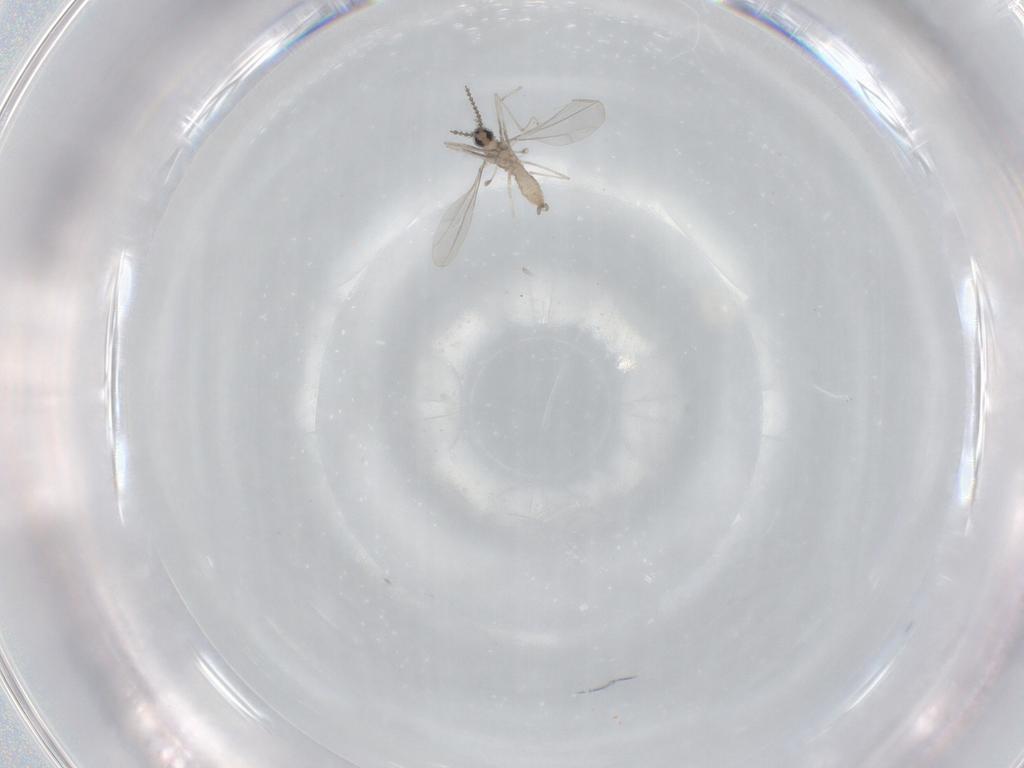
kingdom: Animalia
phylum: Arthropoda
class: Insecta
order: Diptera
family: Cecidomyiidae
